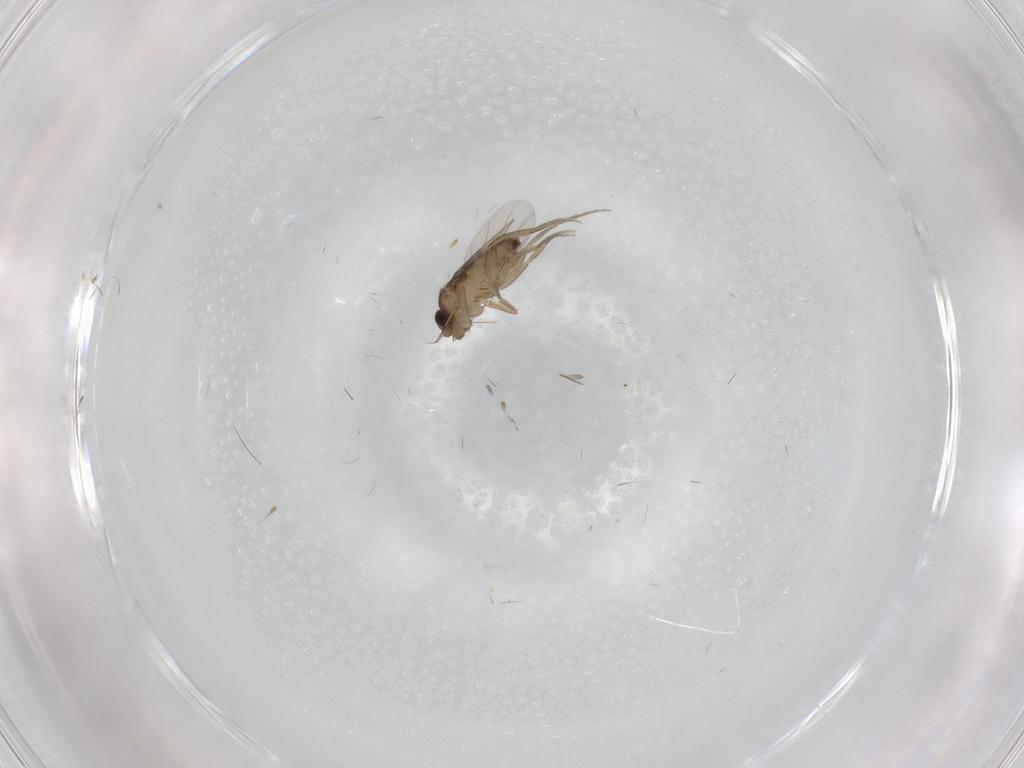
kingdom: Animalia
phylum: Arthropoda
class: Insecta
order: Diptera
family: Phoridae
